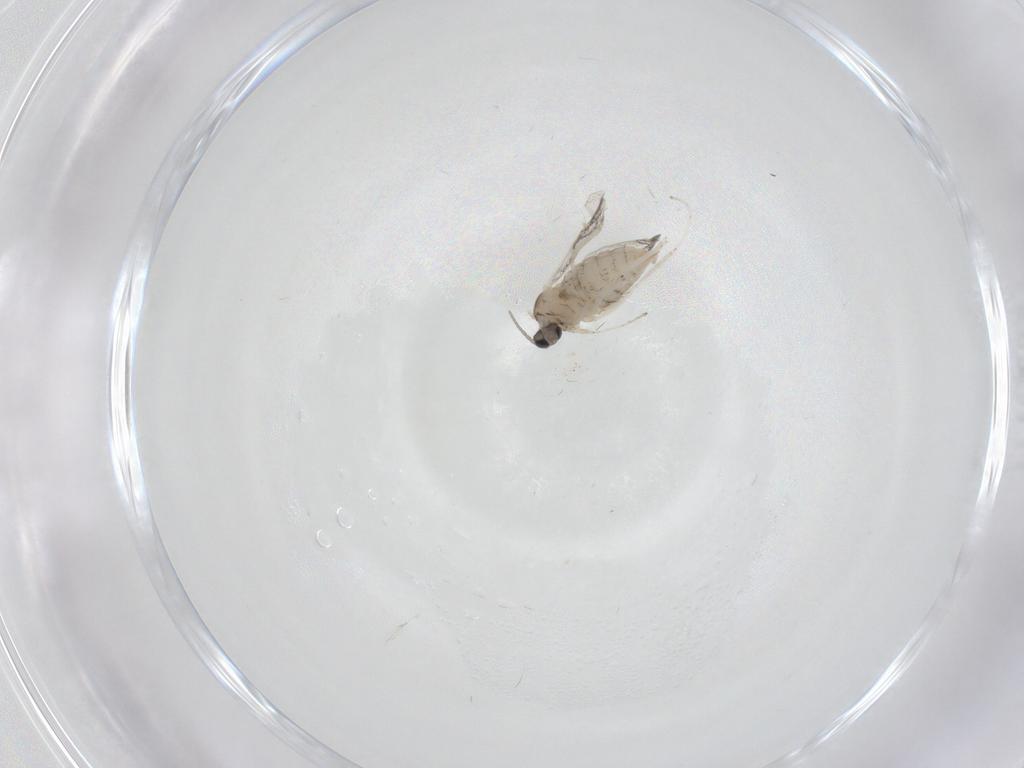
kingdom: Animalia
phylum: Arthropoda
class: Insecta
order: Diptera
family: Cecidomyiidae
